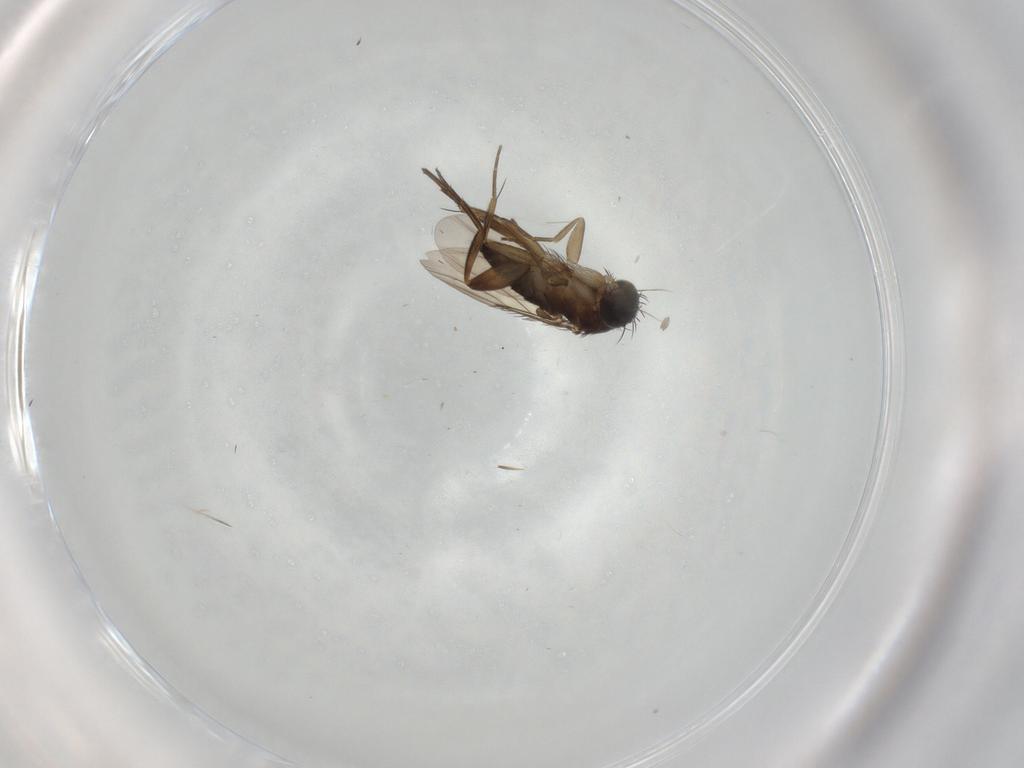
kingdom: Animalia
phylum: Arthropoda
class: Insecta
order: Diptera
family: Phoridae
